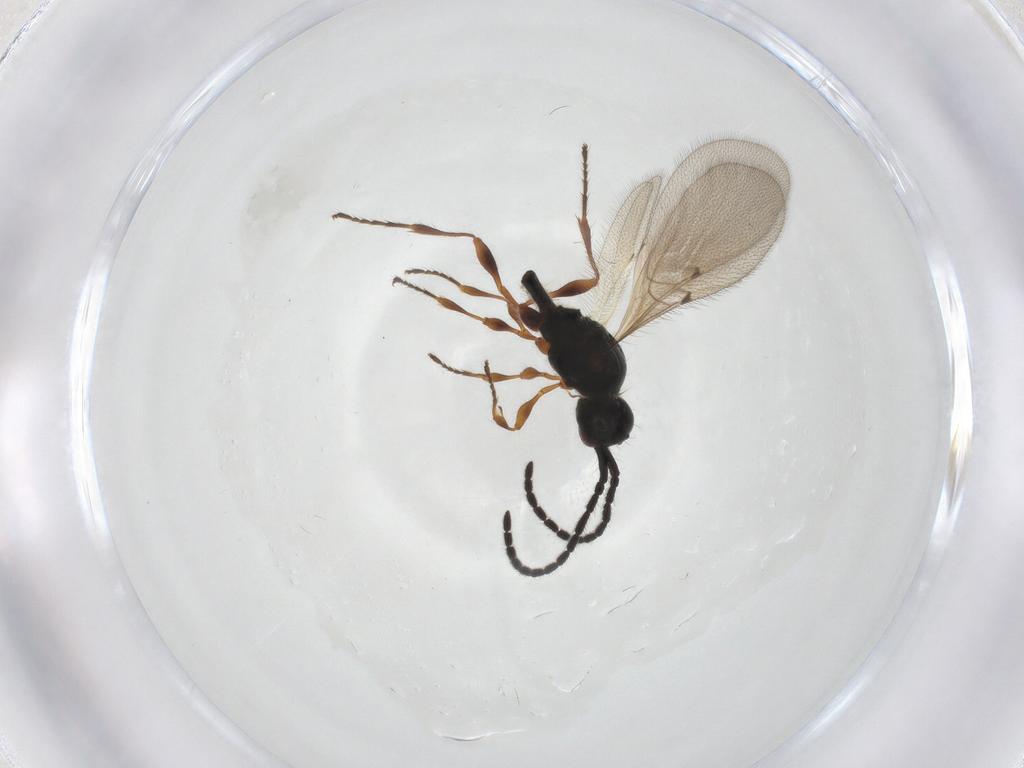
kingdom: Animalia
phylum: Arthropoda
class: Insecta
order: Hymenoptera
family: Diapriidae
